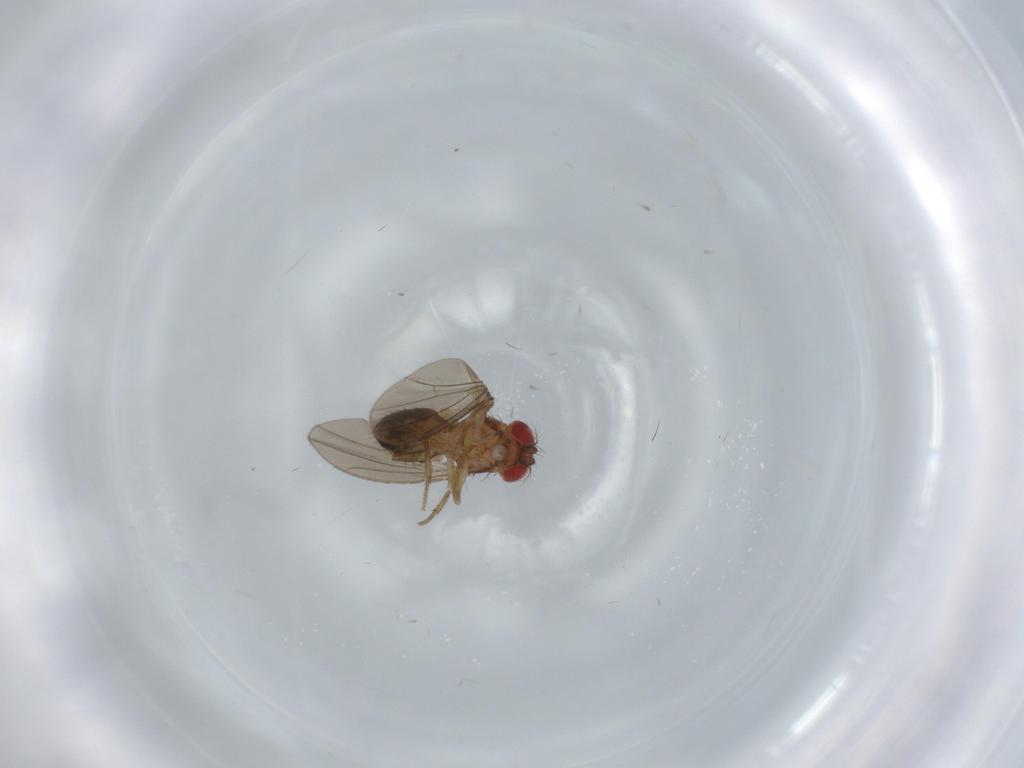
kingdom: Animalia
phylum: Arthropoda
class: Insecta
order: Diptera
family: Drosophilidae
